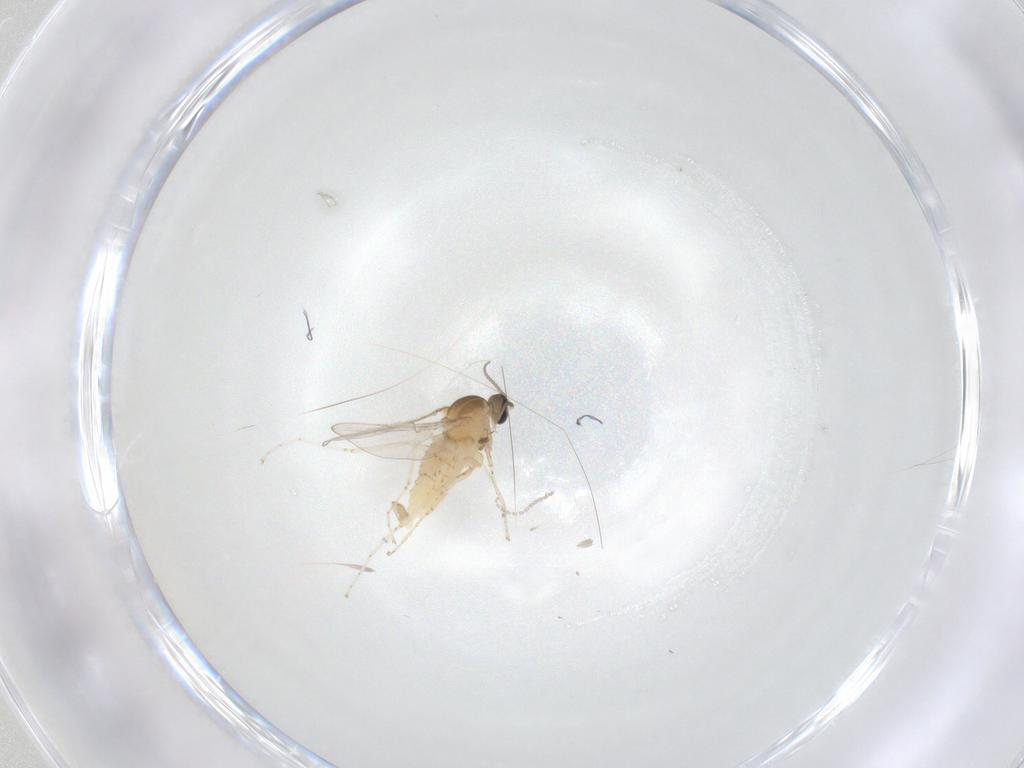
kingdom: Animalia
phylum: Arthropoda
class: Insecta
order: Diptera
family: Cecidomyiidae
